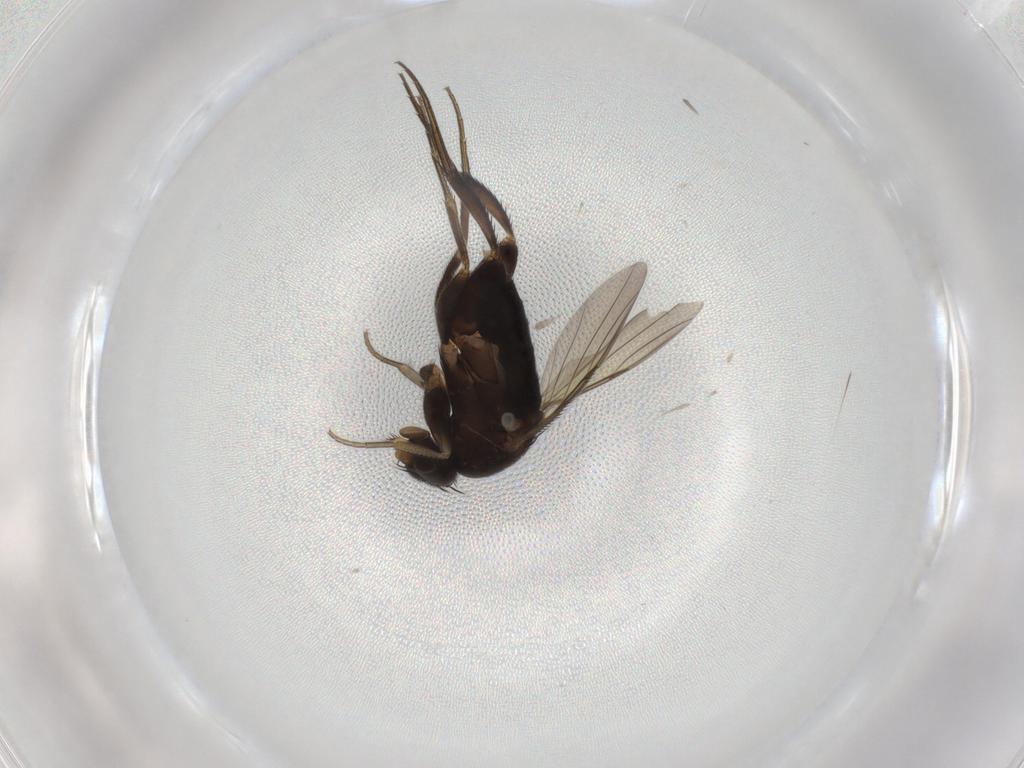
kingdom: Animalia
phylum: Arthropoda
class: Insecta
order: Diptera
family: Phoridae
